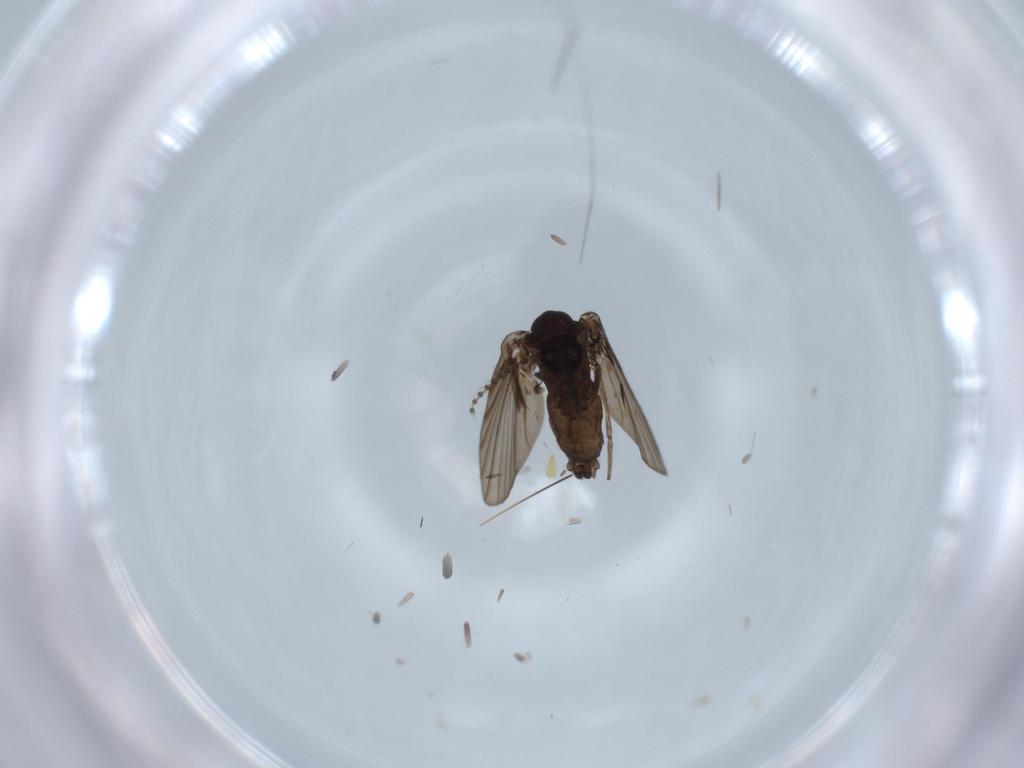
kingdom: Animalia
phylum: Arthropoda
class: Insecta
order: Diptera
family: Psychodidae
